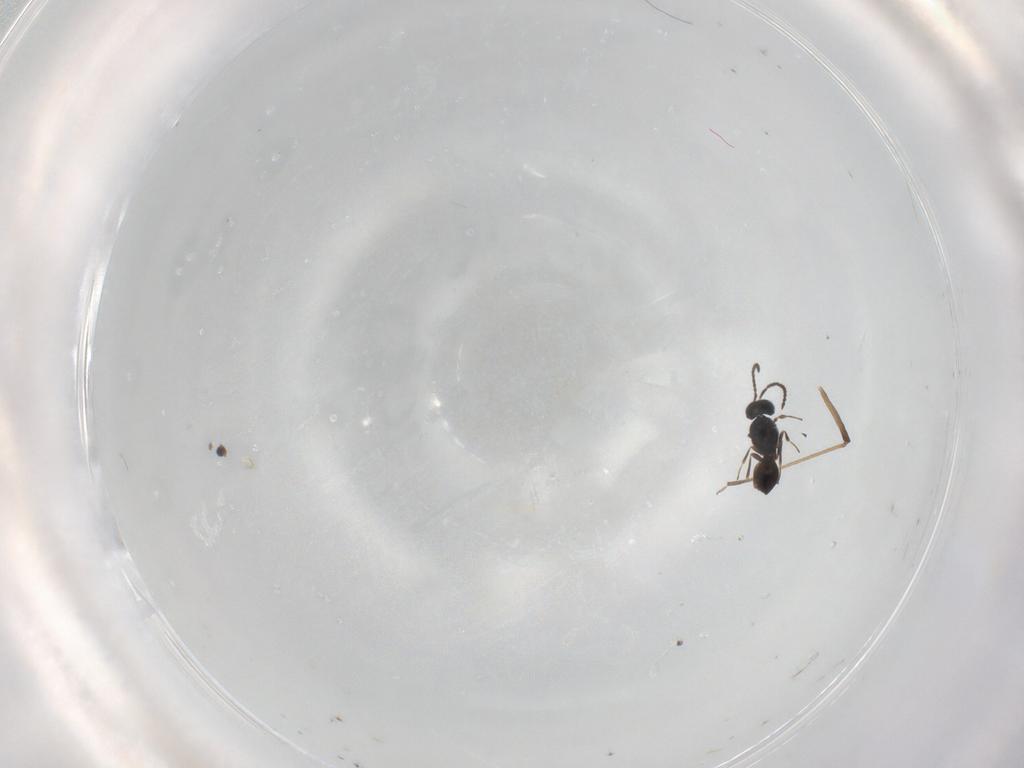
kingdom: Animalia
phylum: Arthropoda
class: Insecta
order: Hymenoptera
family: Scelionidae
